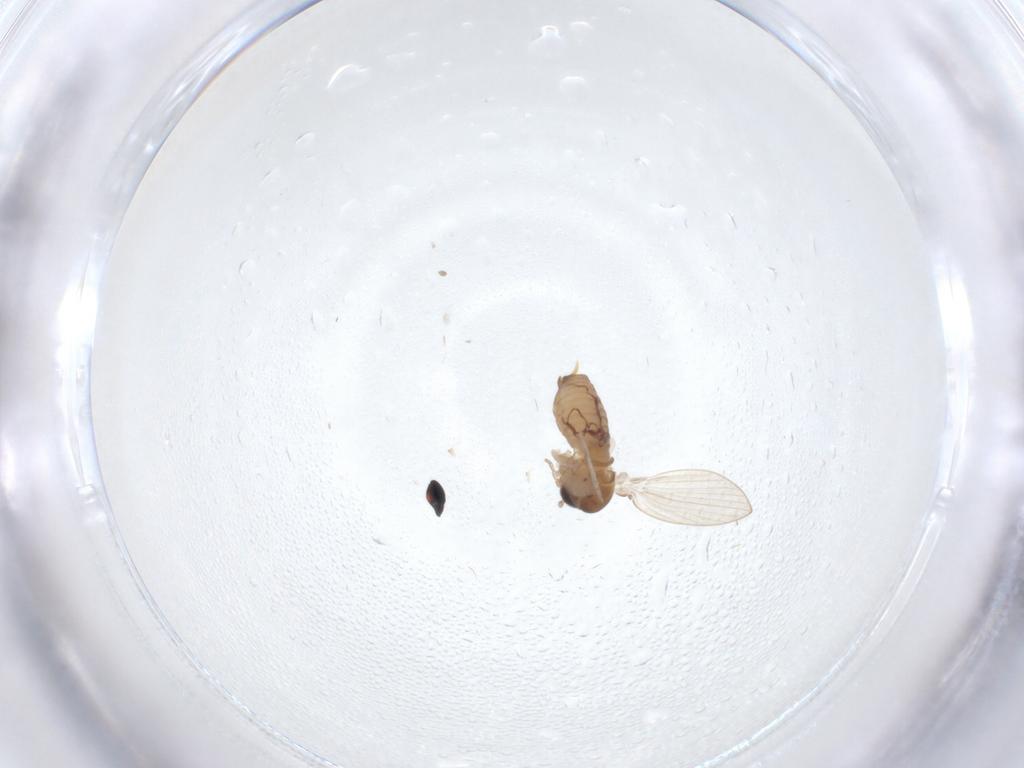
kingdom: Animalia
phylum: Arthropoda
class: Insecta
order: Diptera
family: Psychodidae
